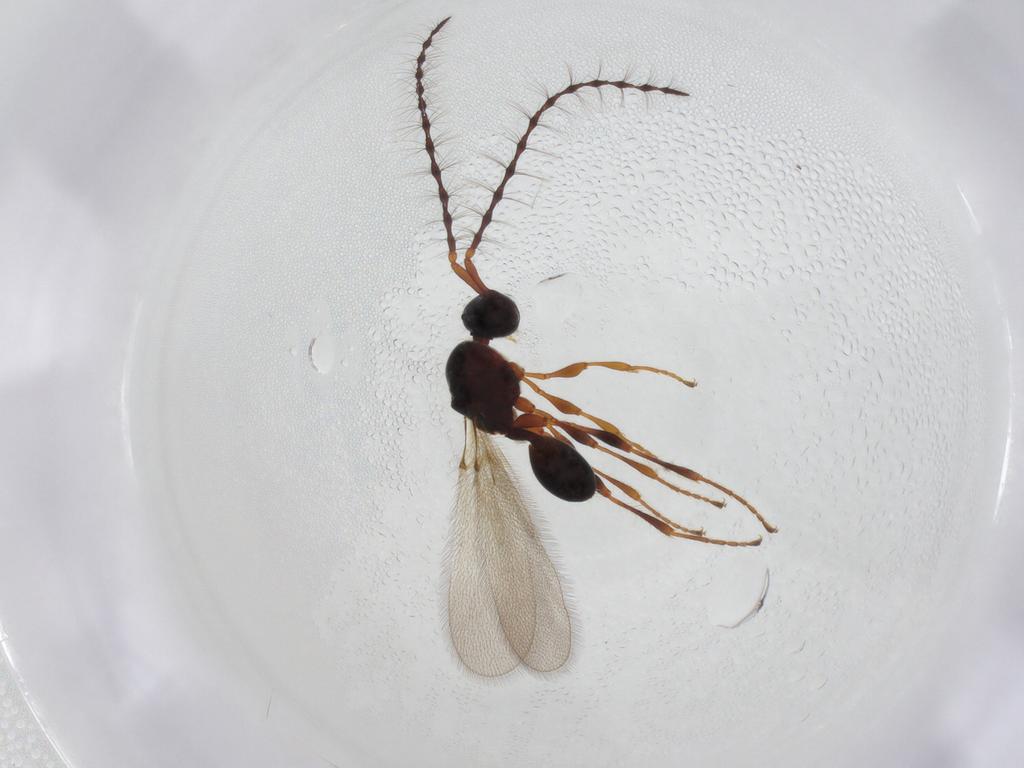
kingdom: Animalia
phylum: Arthropoda
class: Insecta
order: Hymenoptera
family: Diapriidae
